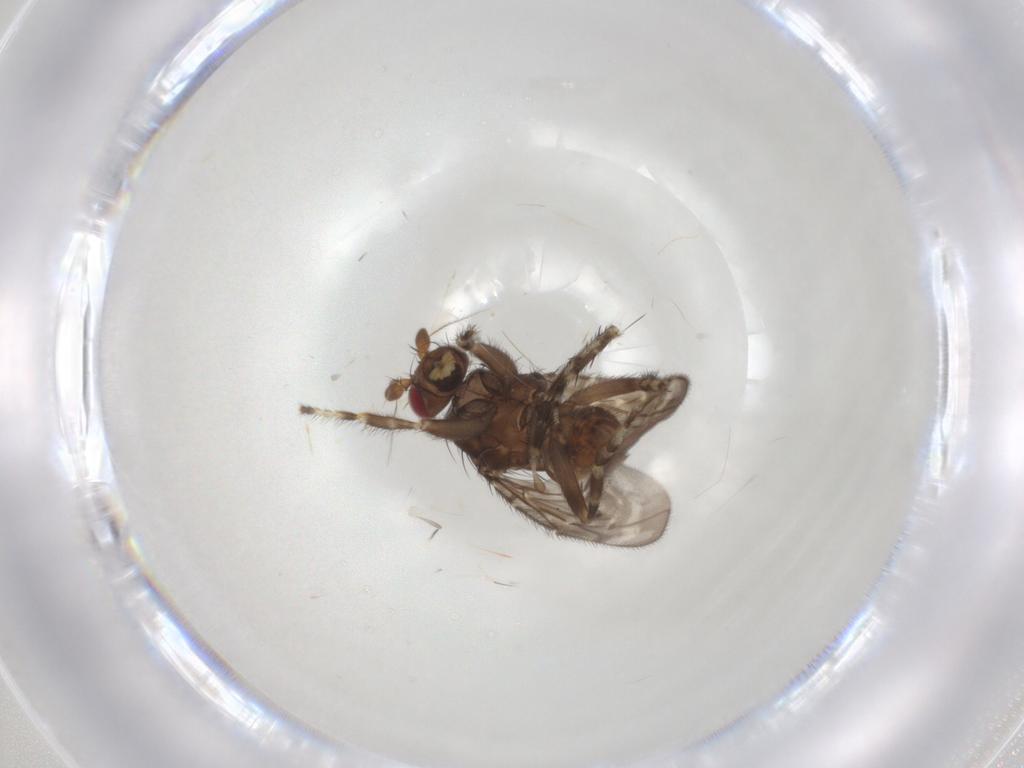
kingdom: Animalia
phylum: Arthropoda
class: Insecta
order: Diptera
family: Sphaeroceridae
